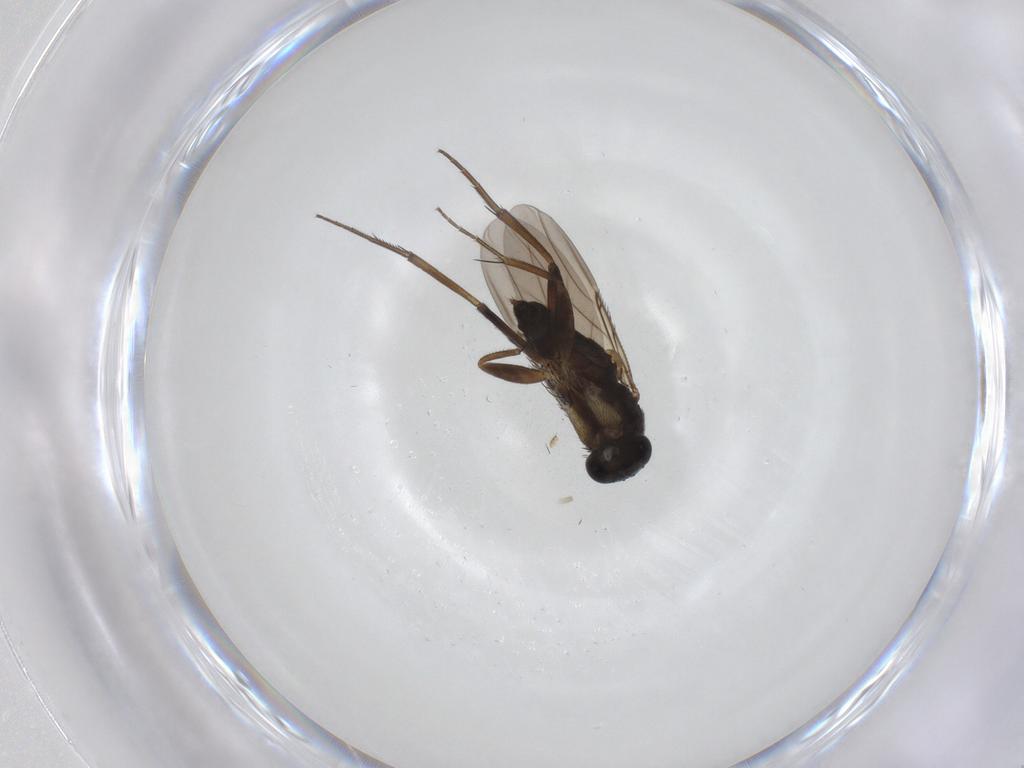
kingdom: Animalia
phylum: Arthropoda
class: Insecta
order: Diptera
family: Phoridae
